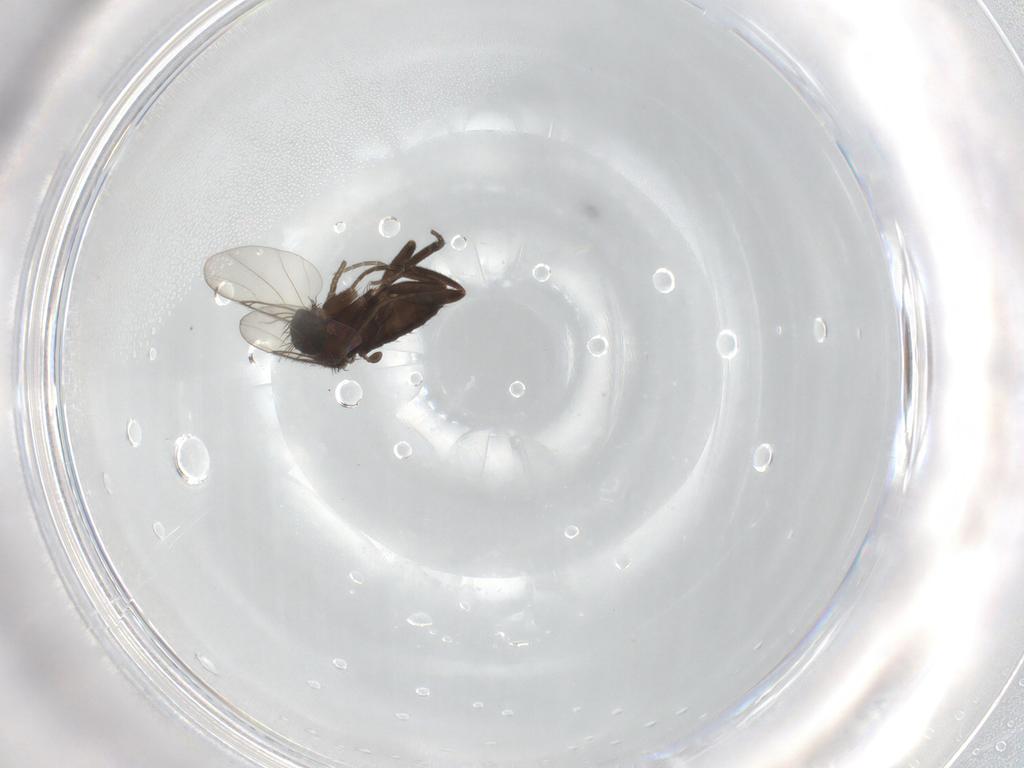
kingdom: Animalia
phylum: Arthropoda
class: Insecta
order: Diptera
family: Phoridae
